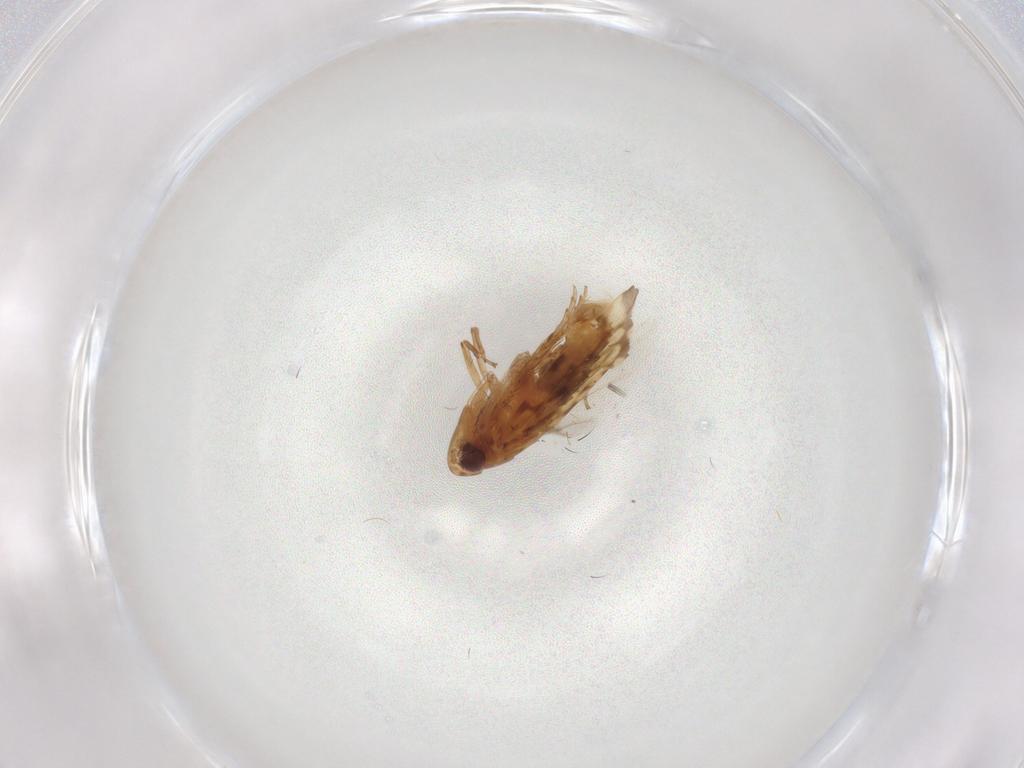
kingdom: Animalia
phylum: Arthropoda
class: Insecta
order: Hemiptera
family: Cicadellidae
